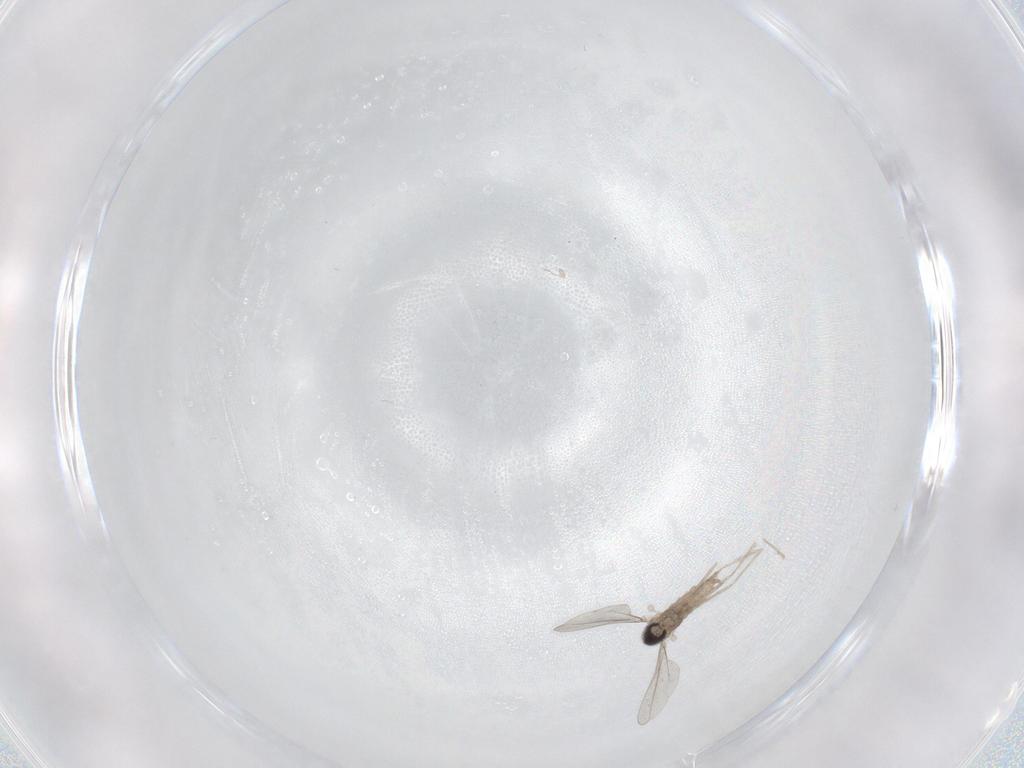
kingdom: Animalia
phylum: Arthropoda
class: Insecta
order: Diptera
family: Cecidomyiidae
